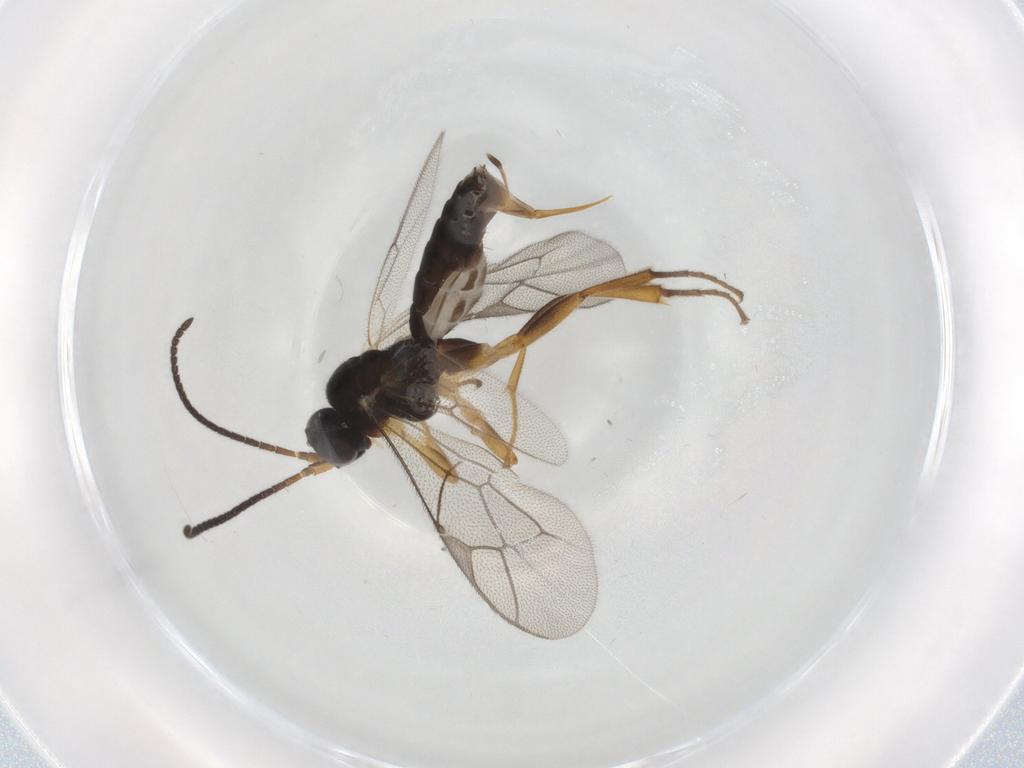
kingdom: Animalia
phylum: Arthropoda
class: Insecta
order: Hymenoptera
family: Ichneumonidae
